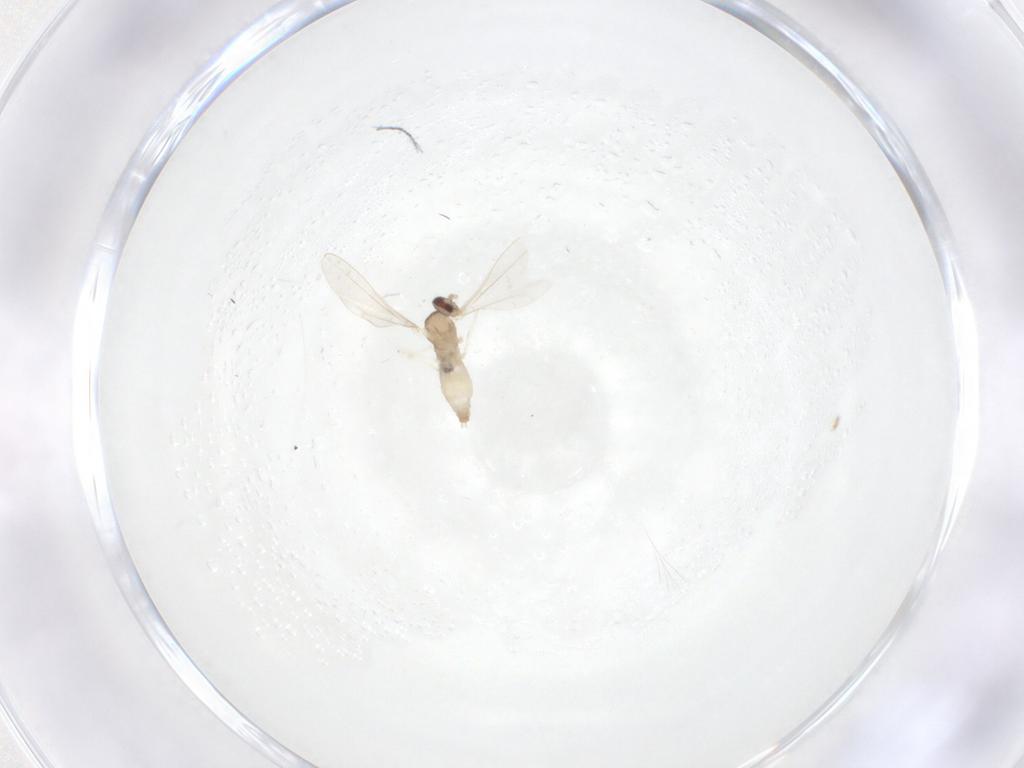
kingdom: Animalia
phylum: Arthropoda
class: Insecta
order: Diptera
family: Cecidomyiidae
